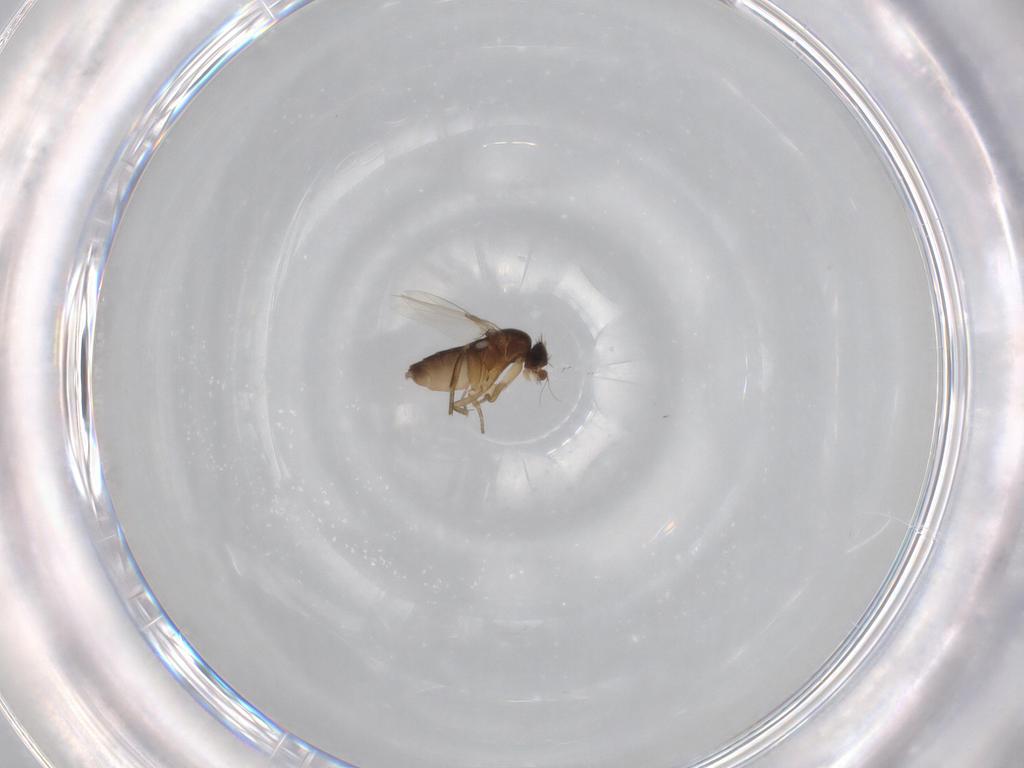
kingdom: Animalia
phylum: Arthropoda
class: Insecta
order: Diptera
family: Phoridae
